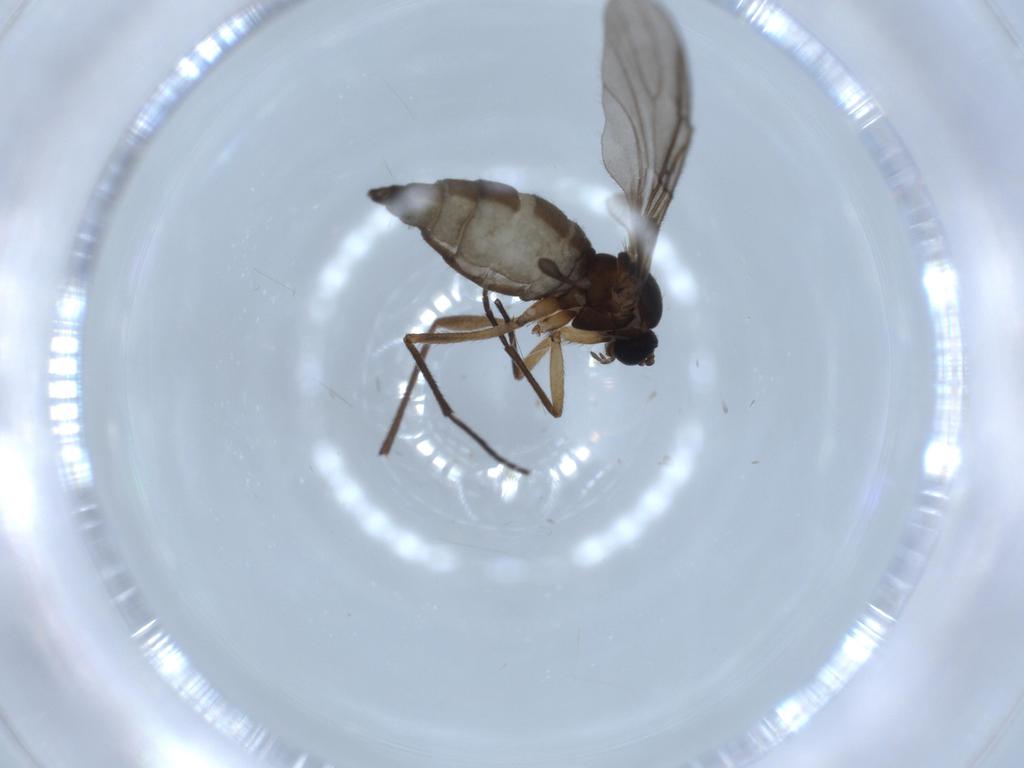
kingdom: Animalia
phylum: Arthropoda
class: Insecta
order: Diptera
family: Sciaridae
